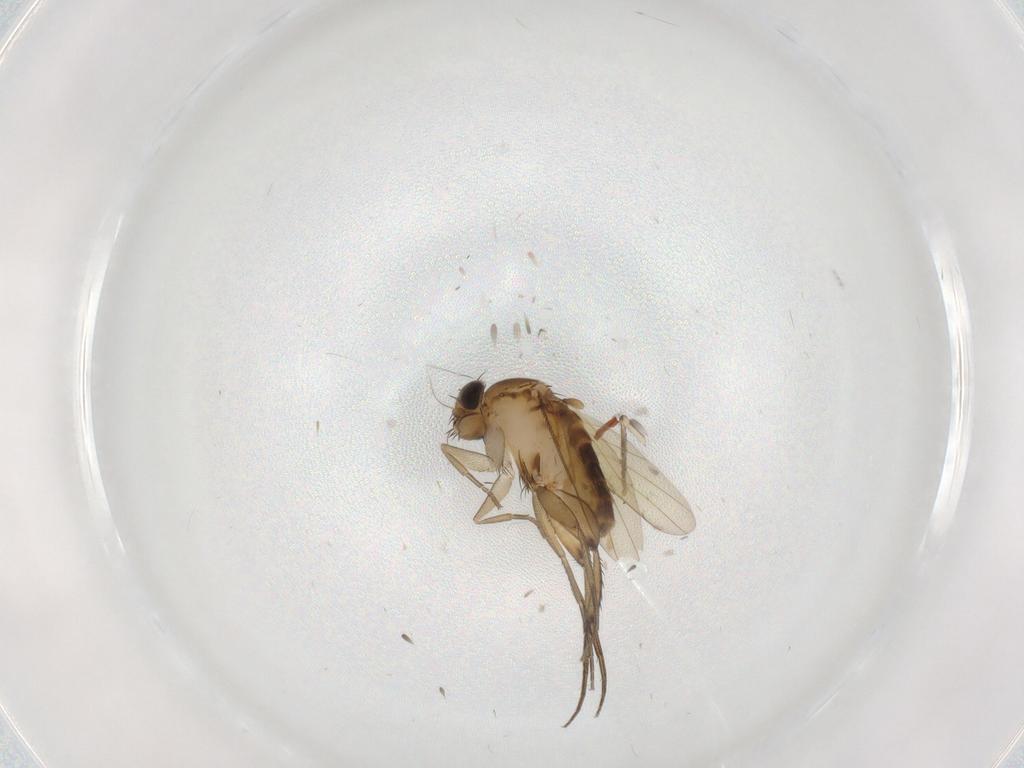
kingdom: Animalia
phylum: Arthropoda
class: Insecta
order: Diptera
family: Phoridae
